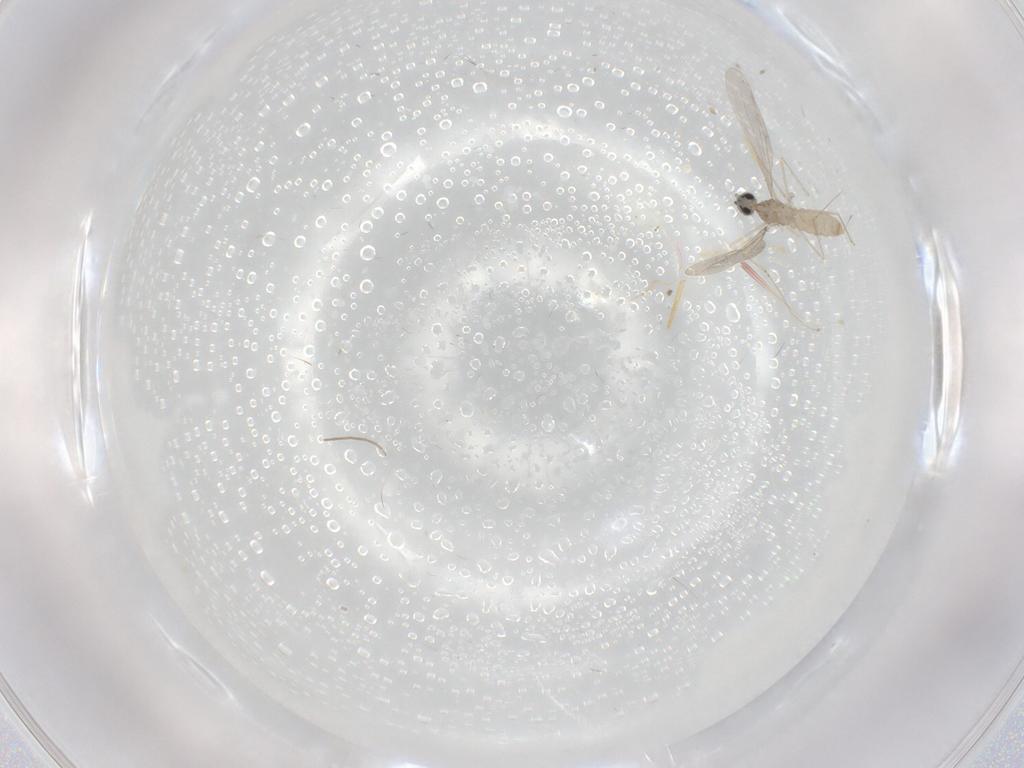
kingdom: Animalia
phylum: Arthropoda
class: Insecta
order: Diptera
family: Cecidomyiidae
